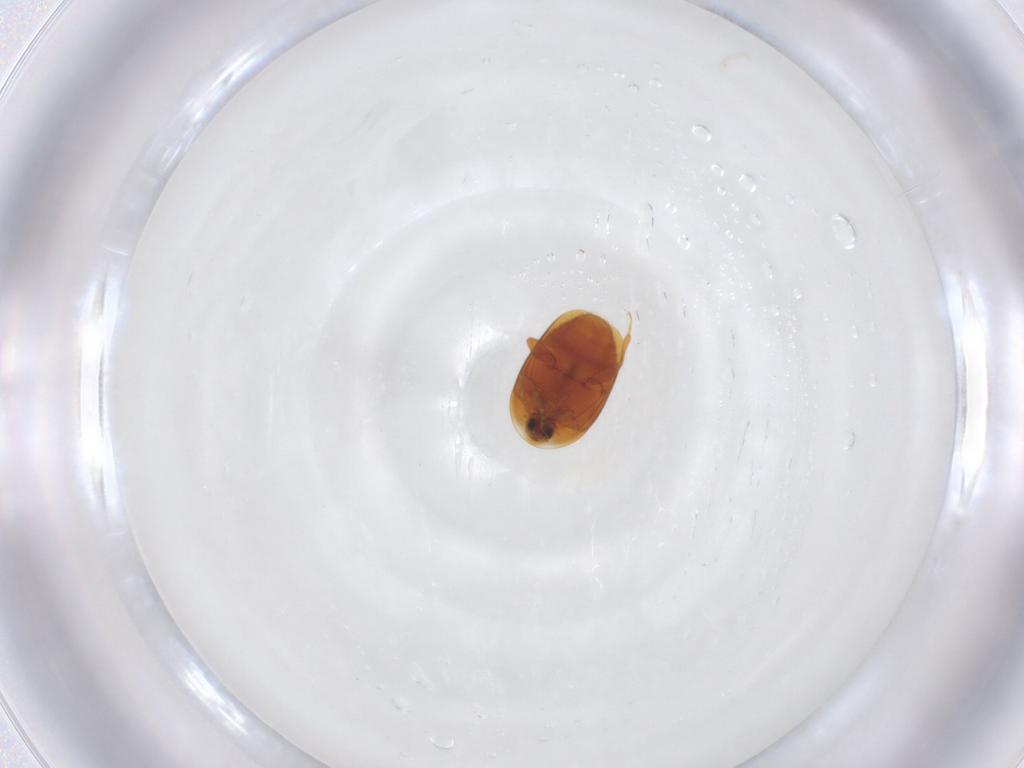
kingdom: Animalia
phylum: Arthropoda
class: Insecta
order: Coleoptera
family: Corylophidae
